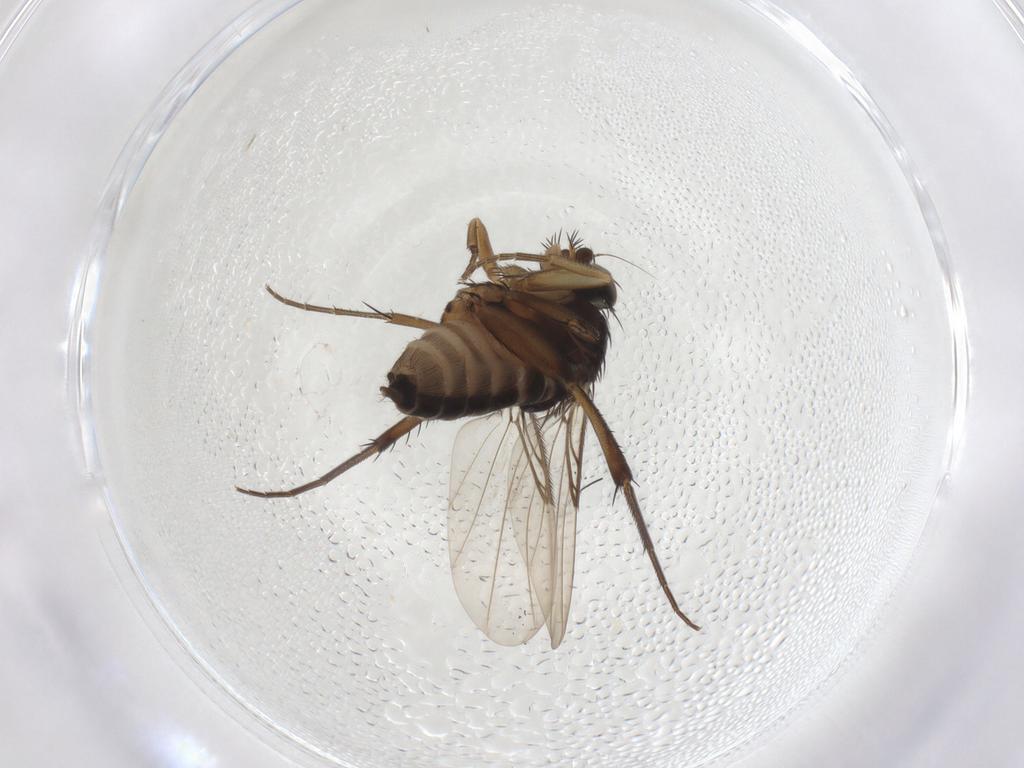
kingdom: Animalia
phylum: Arthropoda
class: Insecta
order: Diptera
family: Phoridae
